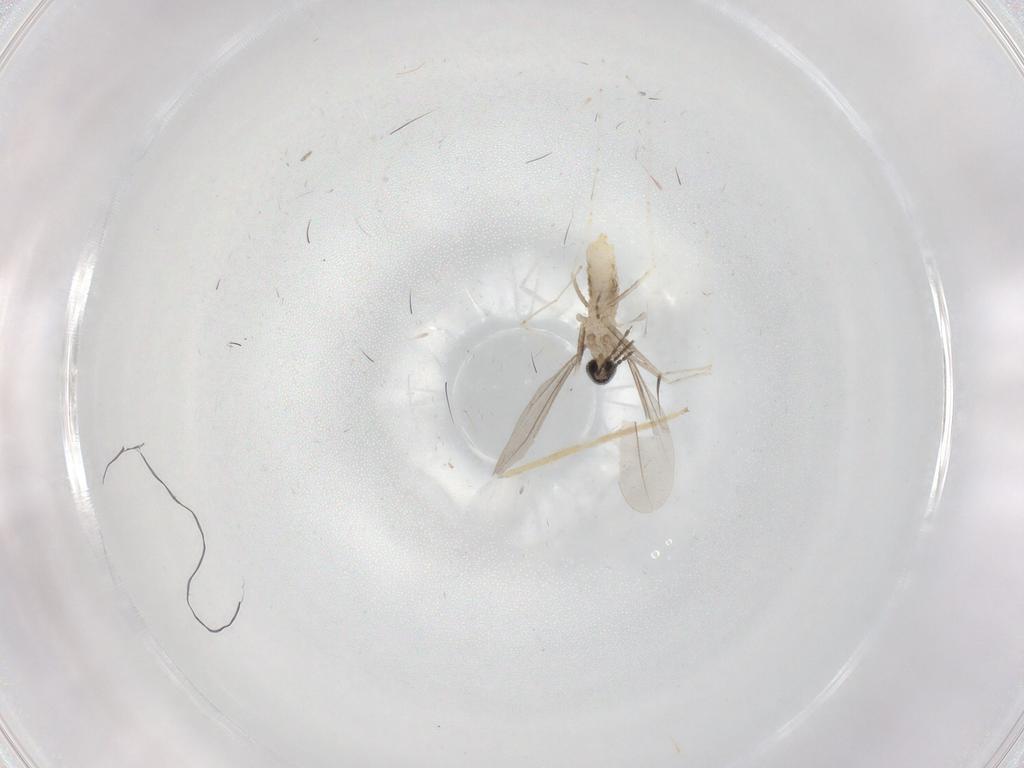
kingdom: Animalia
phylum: Arthropoda
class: Insecta
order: Diptera
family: Cecidomyiidae
